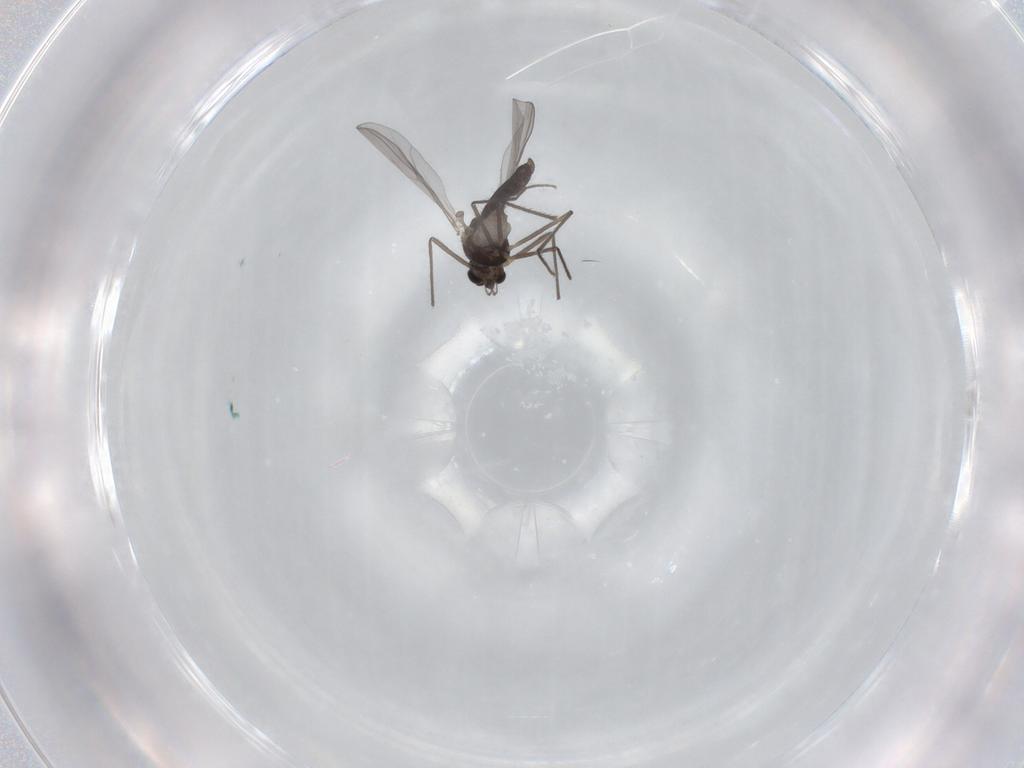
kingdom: Animalia
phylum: Arthropoda
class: Insecta
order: Diptera
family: Chironomidae
